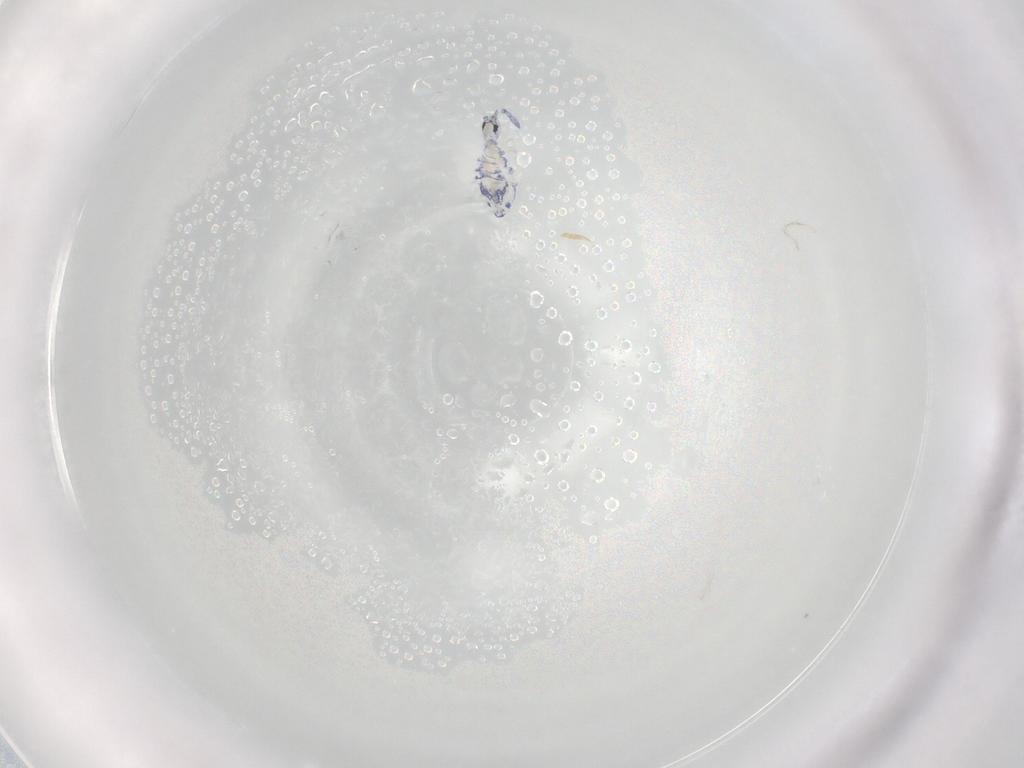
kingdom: Animalia
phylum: Arthropoda
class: Collembola
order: Entomobryomorpha
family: Entomobryidae
